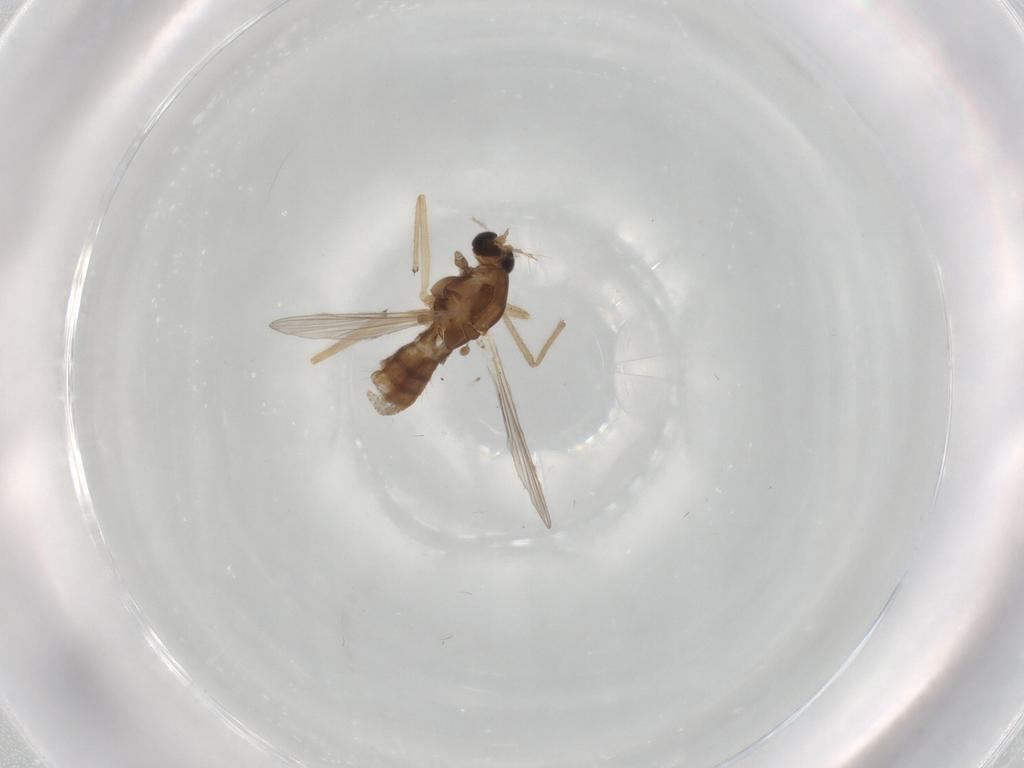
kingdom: Animalia
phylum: Arthropoda
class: Insecta
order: Diptera
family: Chironomidae
